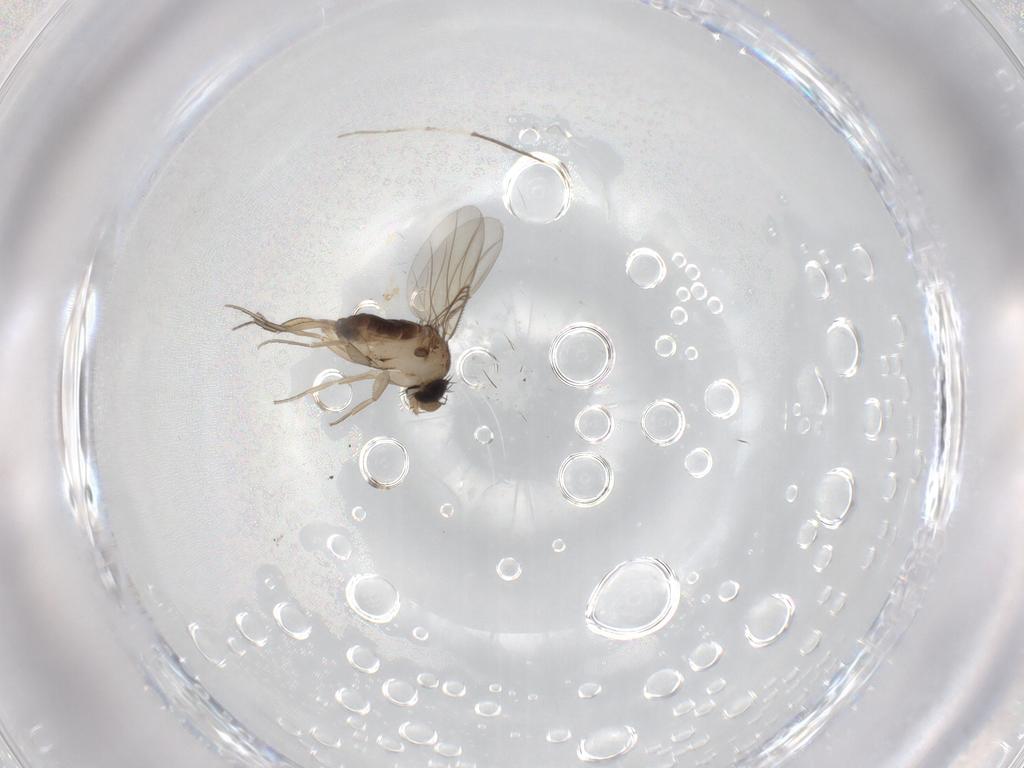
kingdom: Animalia
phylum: Arthropoda
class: Insecta
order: Diptera
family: Phoridae
